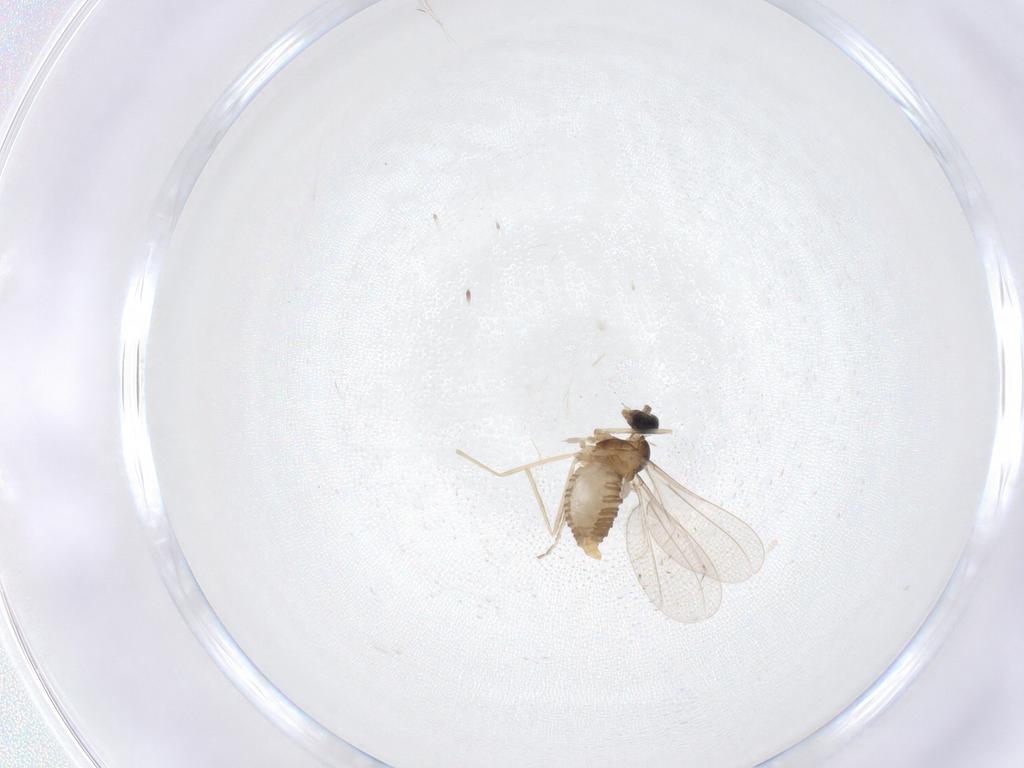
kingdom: Animalia
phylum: Arthropoda
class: Insecta
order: Diptera
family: Cecidomyiidae
